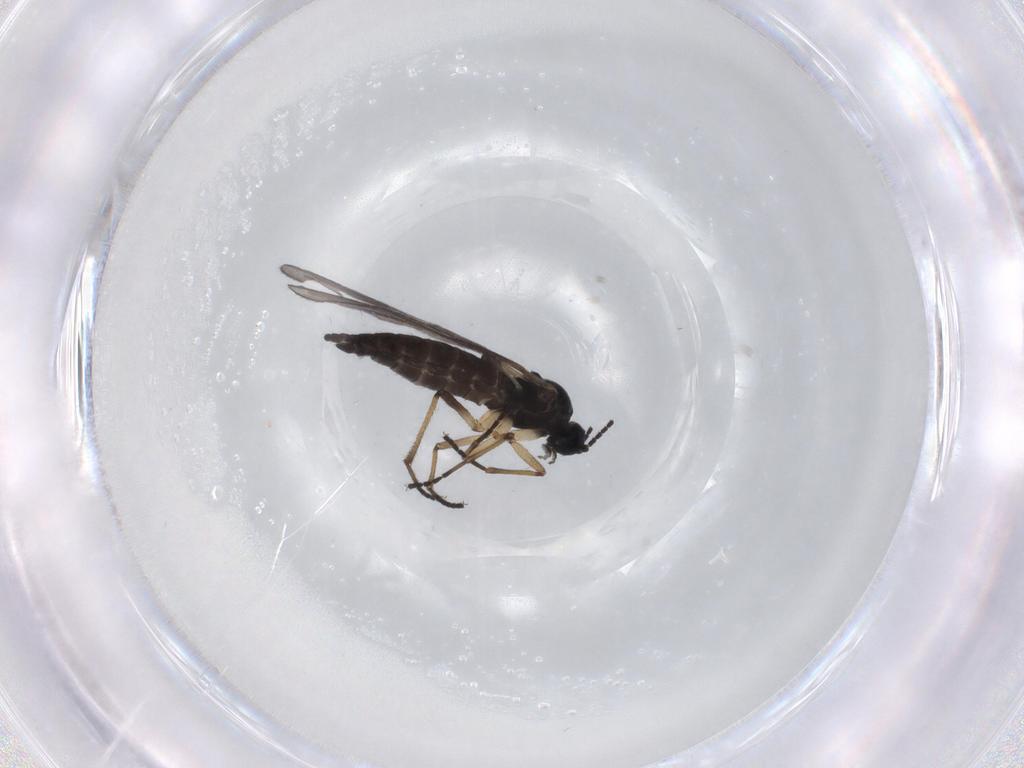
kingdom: Animalia
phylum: Arthropoda
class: Insecta
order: Diptera
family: Sciaridae
